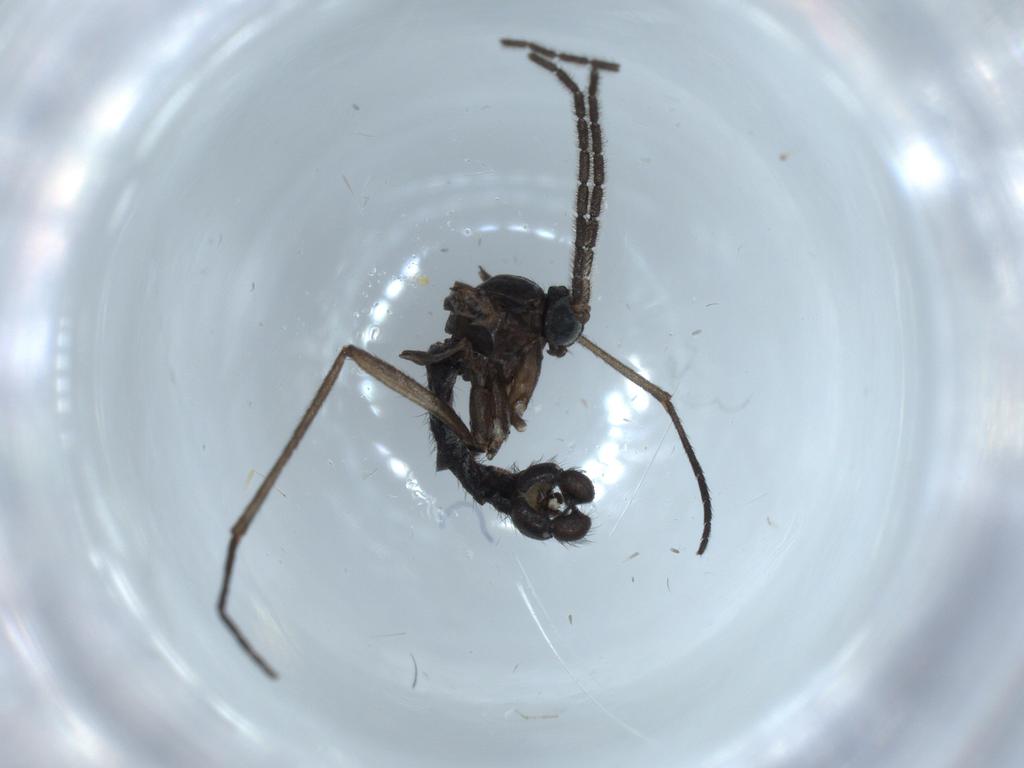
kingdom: Animalia
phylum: Arthropoda
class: Insecta
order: Diptera
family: Sciaridae
